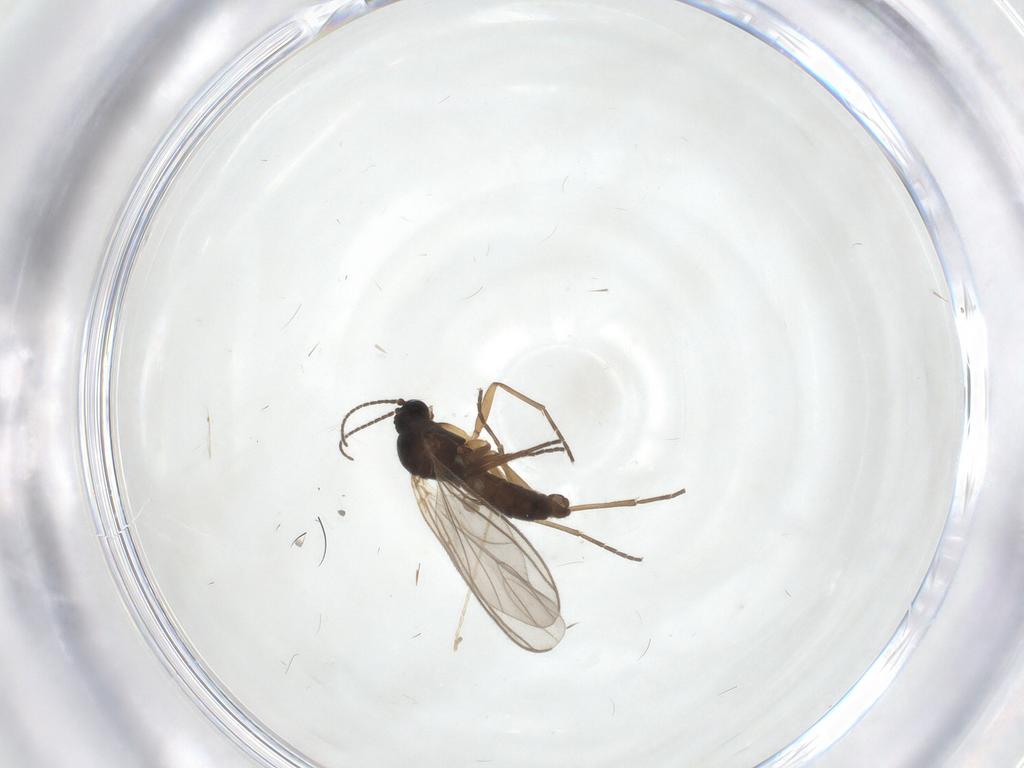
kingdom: Animalia
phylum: Arthropoda
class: Insecta
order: Diptera
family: Sciaridae
